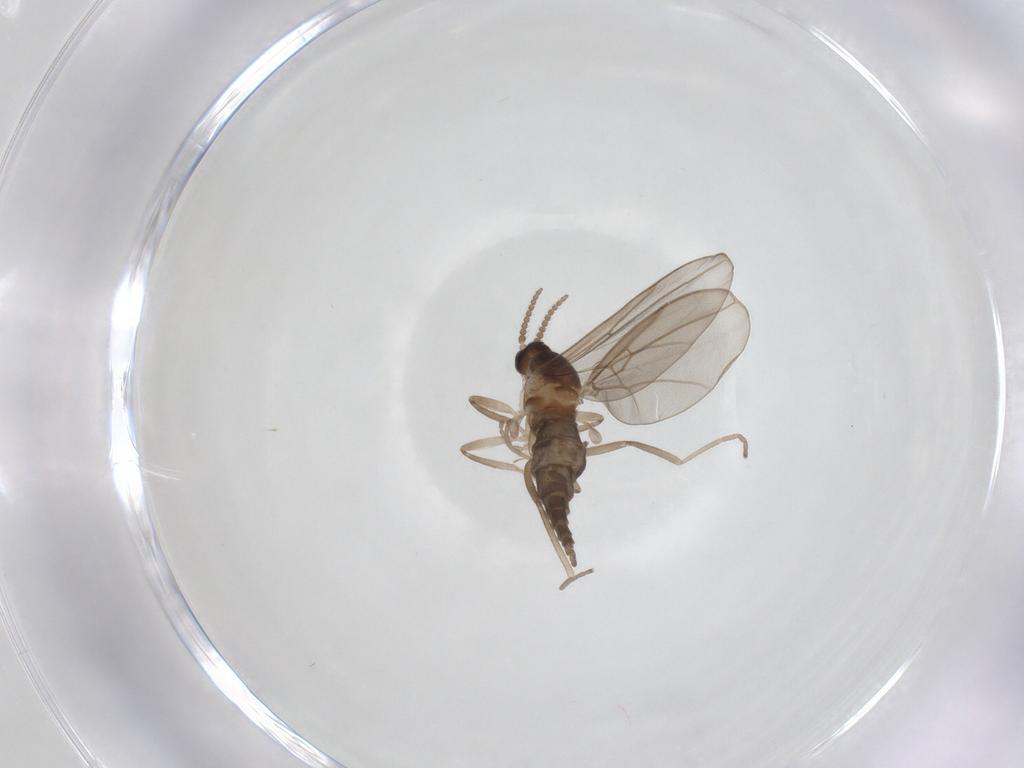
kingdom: Animalia
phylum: Arthropoda
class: Insecta
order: Diptera
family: Cecidomyiidae
